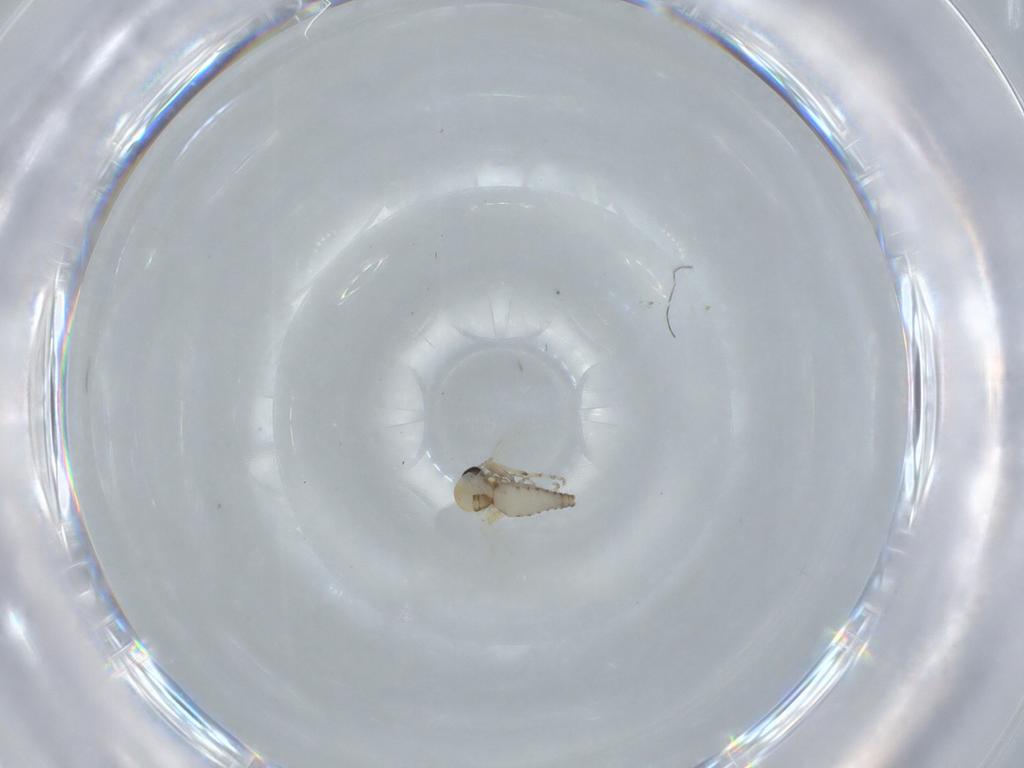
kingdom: Animalia
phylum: Arthropoda
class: Insecta
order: Diptera
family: Ceratopogonidae
